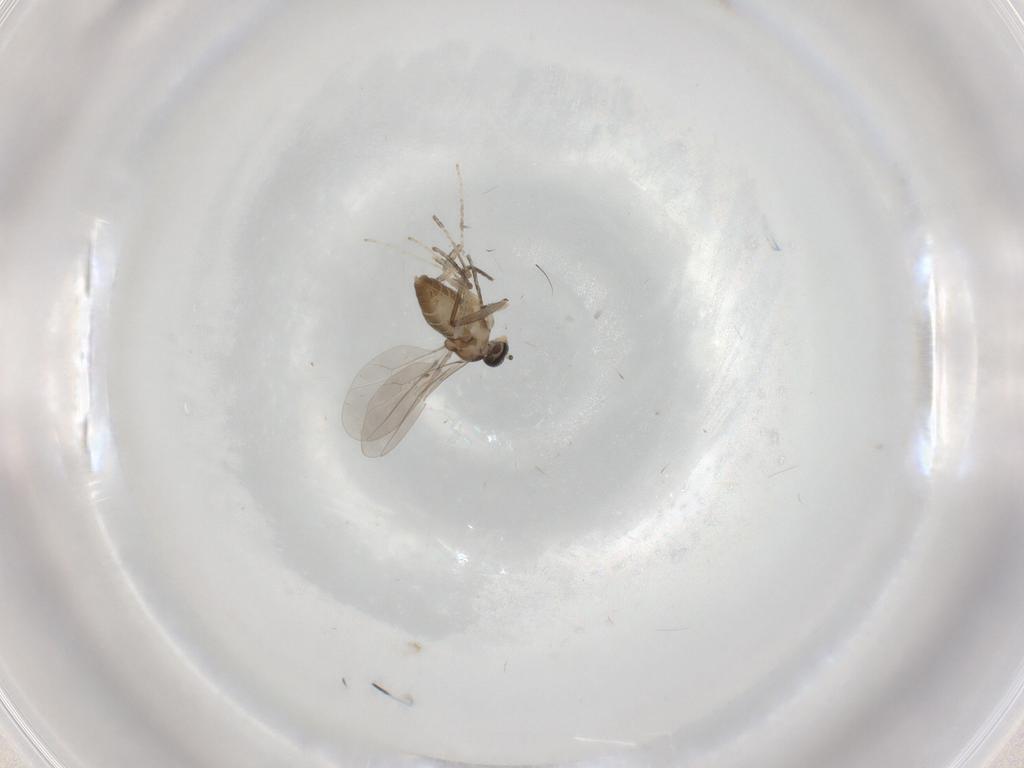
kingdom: Animalia
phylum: Arthropoda
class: Insecta
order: Diptera
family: Cecidomyiidae
